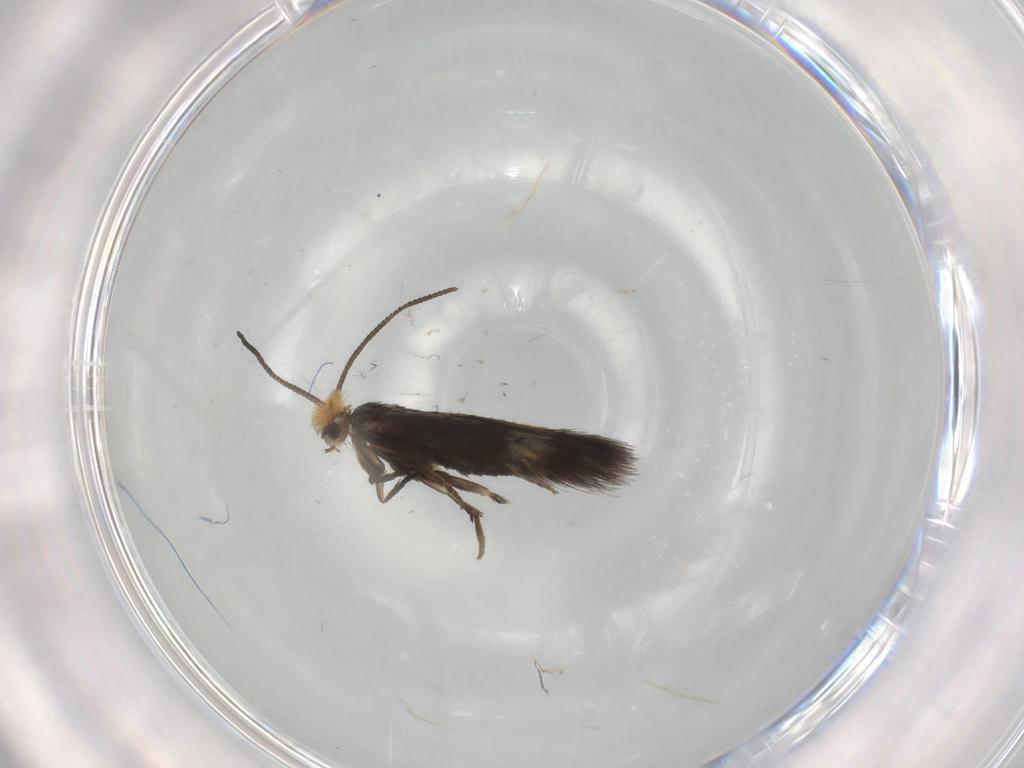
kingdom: Animalia
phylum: Arthropoda
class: Insecta
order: Lepidoptera
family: Nepticulidae
